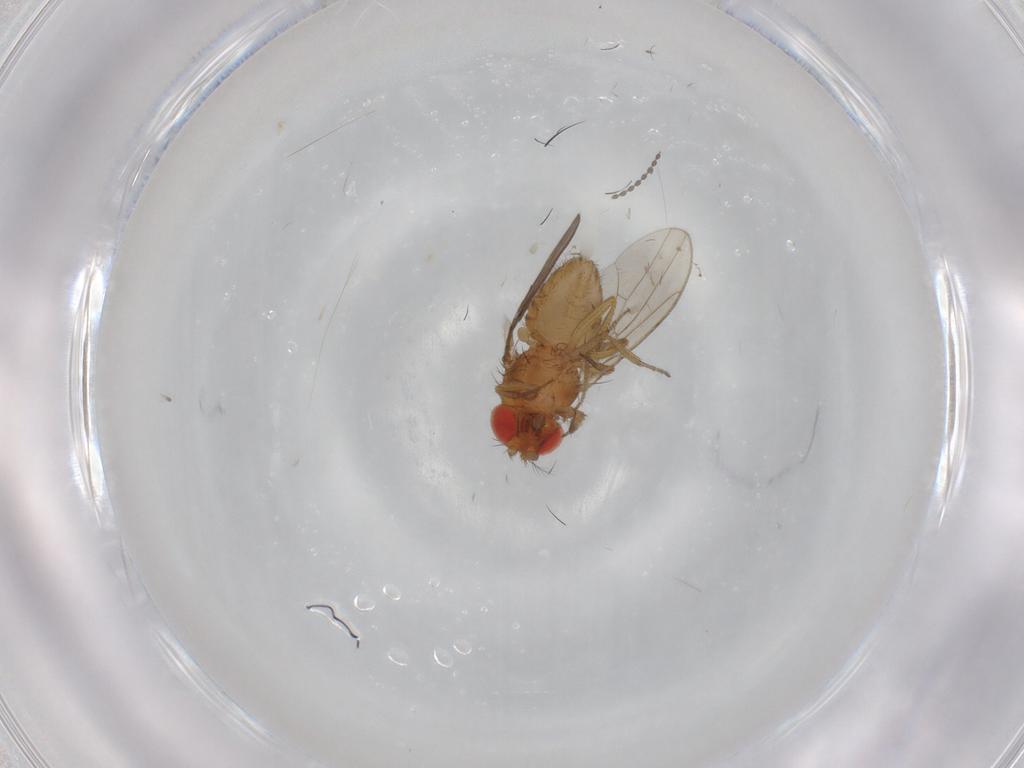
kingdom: Animalia
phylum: Arthropoda
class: Insecta
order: Diptera
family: Drosophilidae
